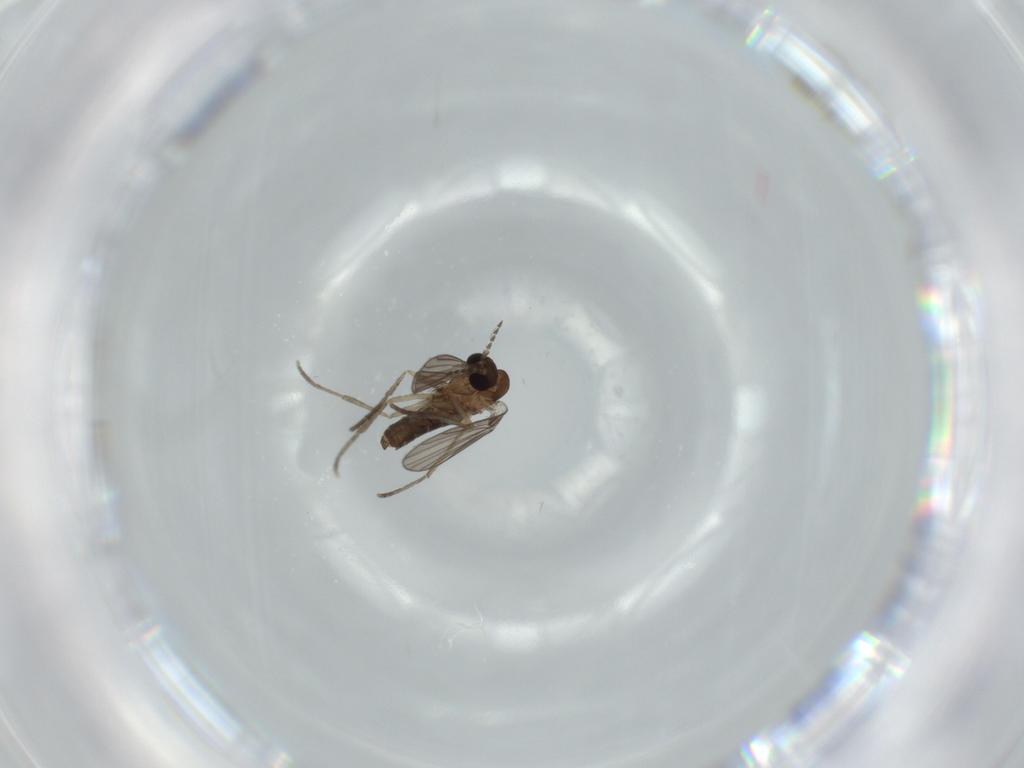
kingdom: Animalia
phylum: Arthropoda
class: Insecta
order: Diptera
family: Psychodidae
